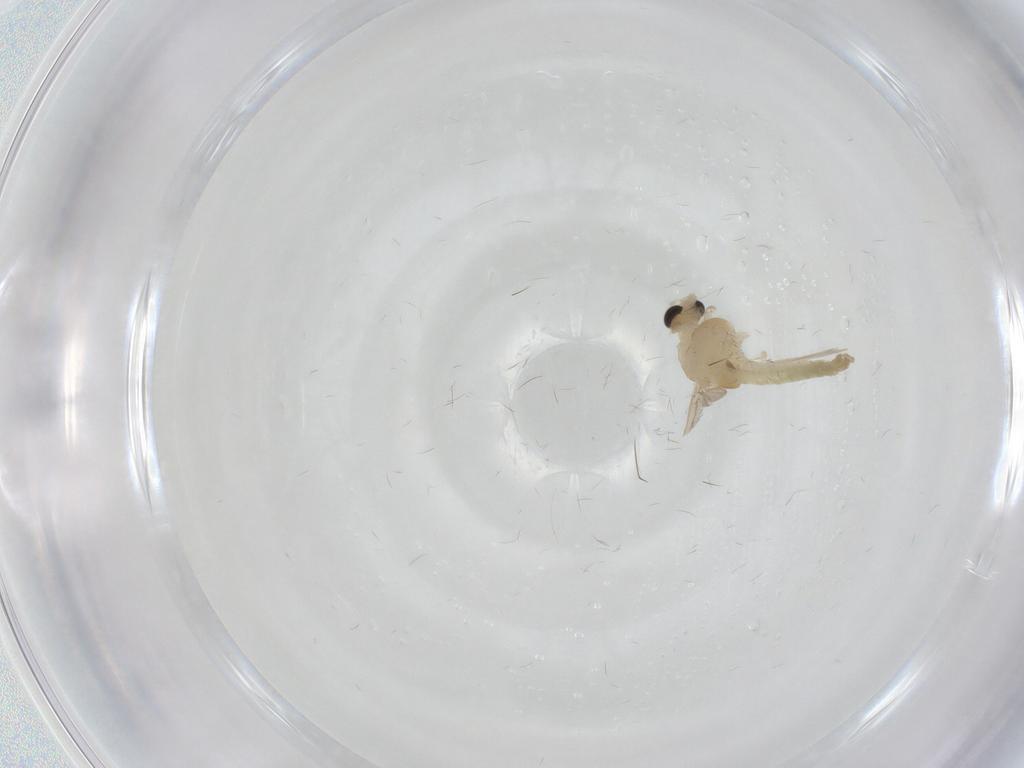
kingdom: Animalia
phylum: Arthropoda
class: Insecta
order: Diptera
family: Chironomidae
